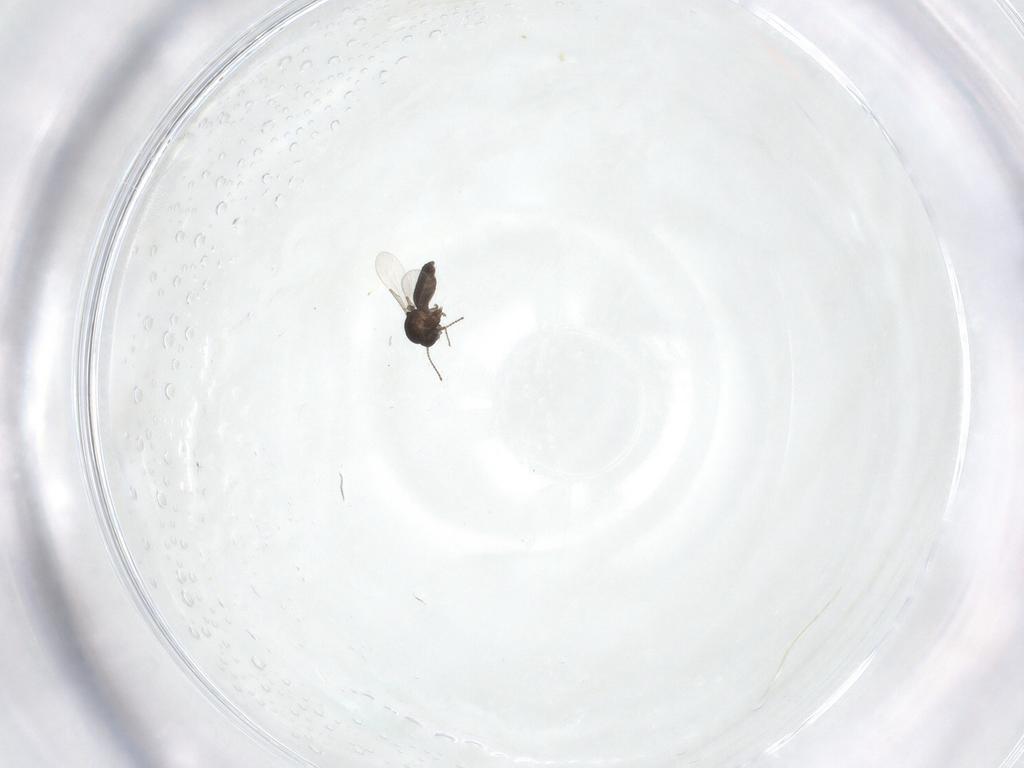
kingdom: Animalia
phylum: Arthropoda
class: Insecta
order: Diptera
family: Ceratopogonidae
